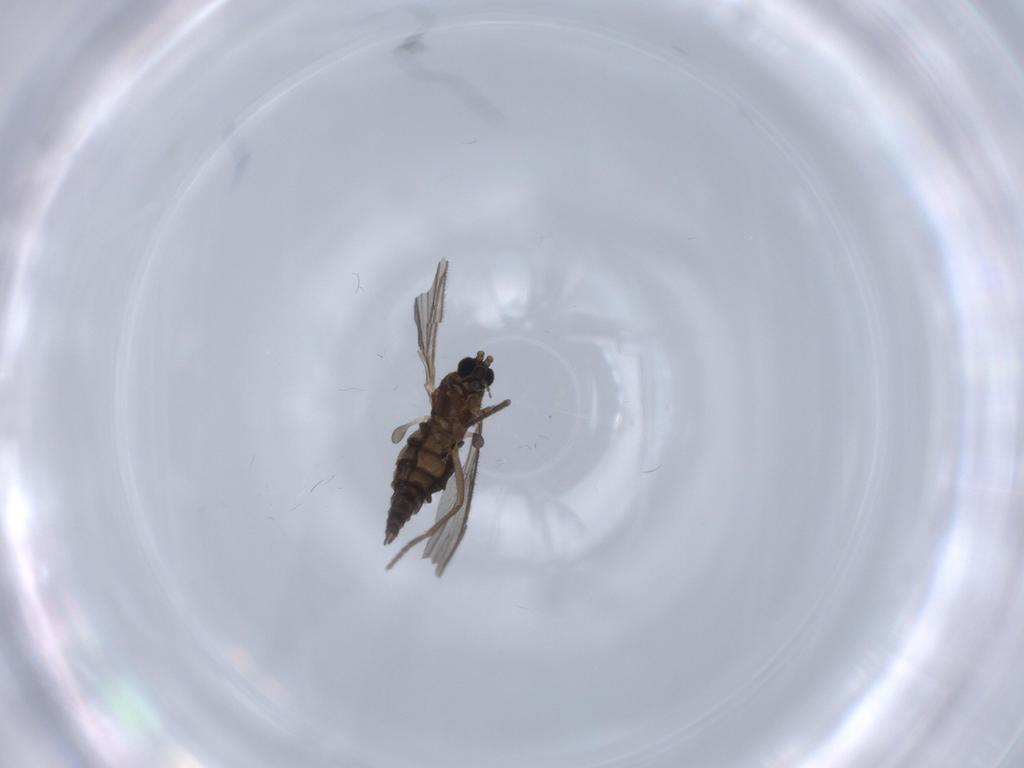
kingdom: Animalia
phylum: Arthropoda
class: Insecta
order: Diptera
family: Sciaridae
